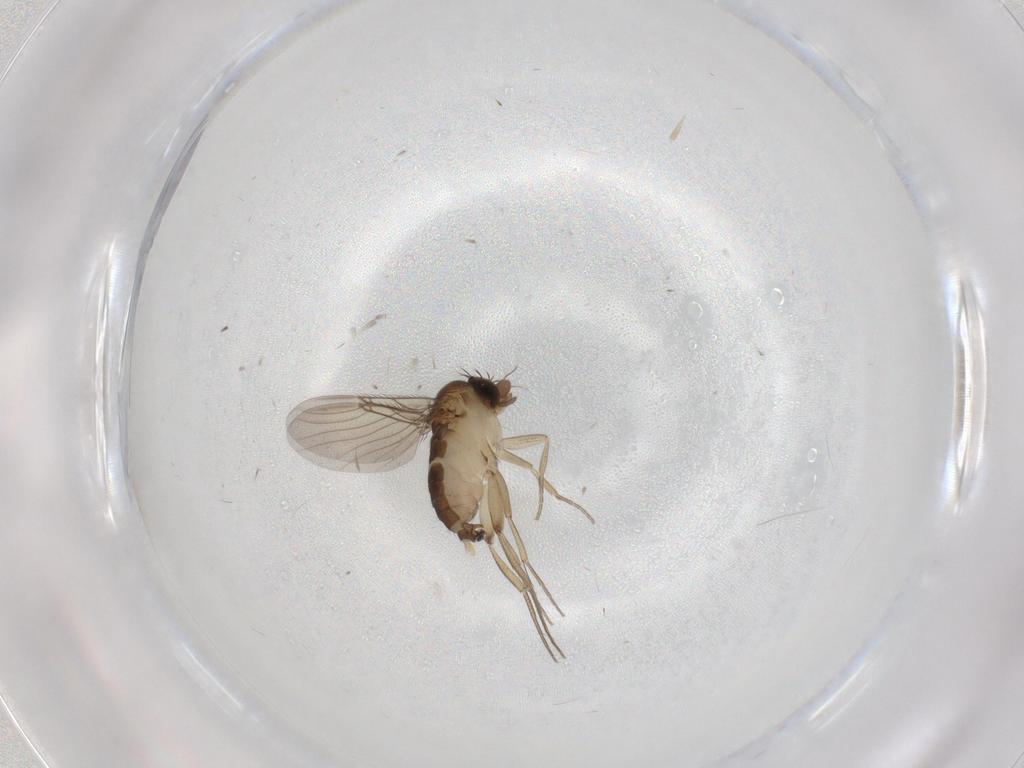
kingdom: Animalia
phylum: Arthropoda
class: Insecta
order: Diptera
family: Phoridae
